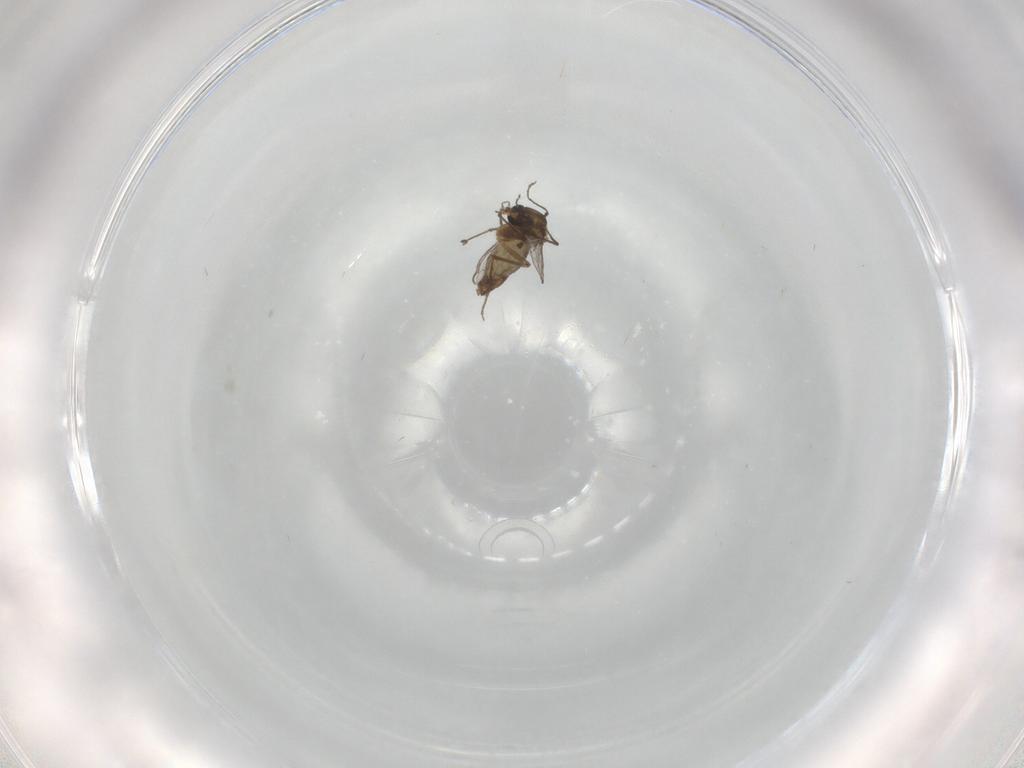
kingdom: Animalia
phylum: Arthropoda
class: Insecta
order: Diptera
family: Chironomidae
